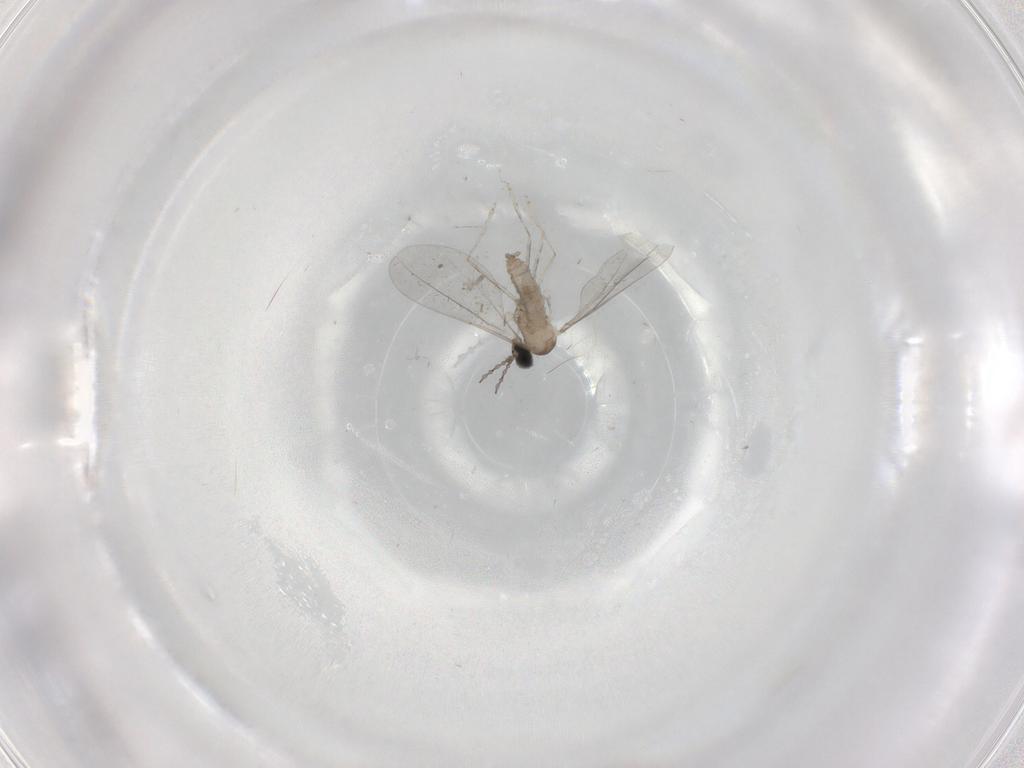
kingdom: Animalia
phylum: Arthropoda
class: Insecta
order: Diptera
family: Cecidomyiidae
